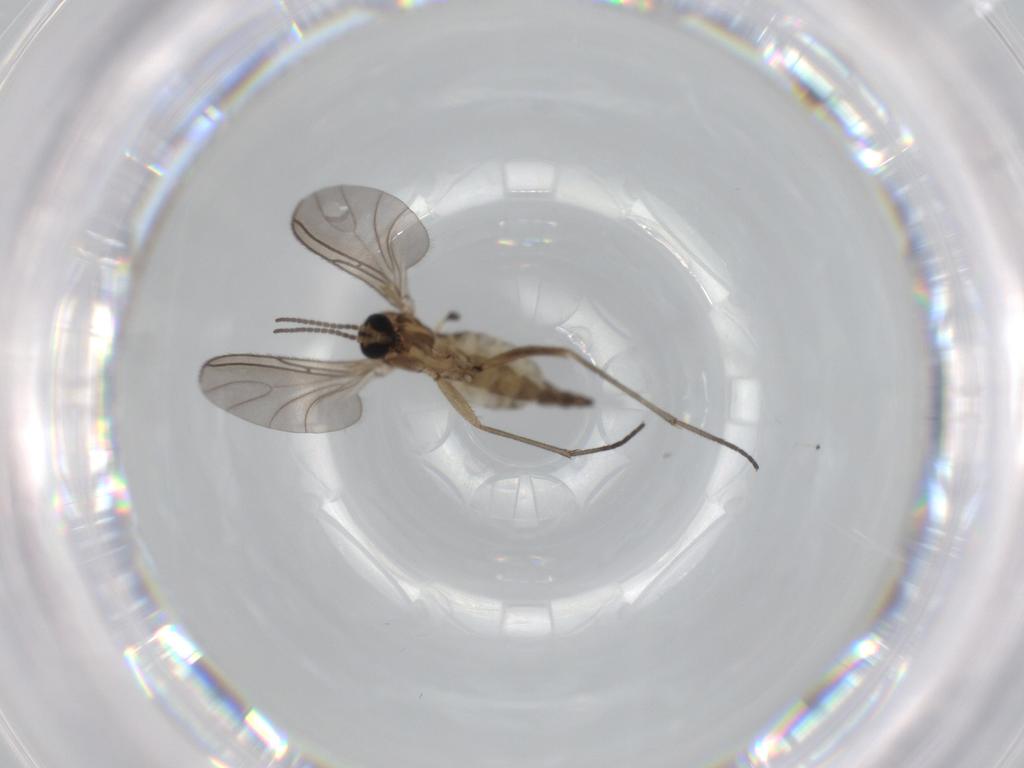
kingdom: Animalia
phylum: Arthropoda
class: Insecta
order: Diptera
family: Sciaridae
